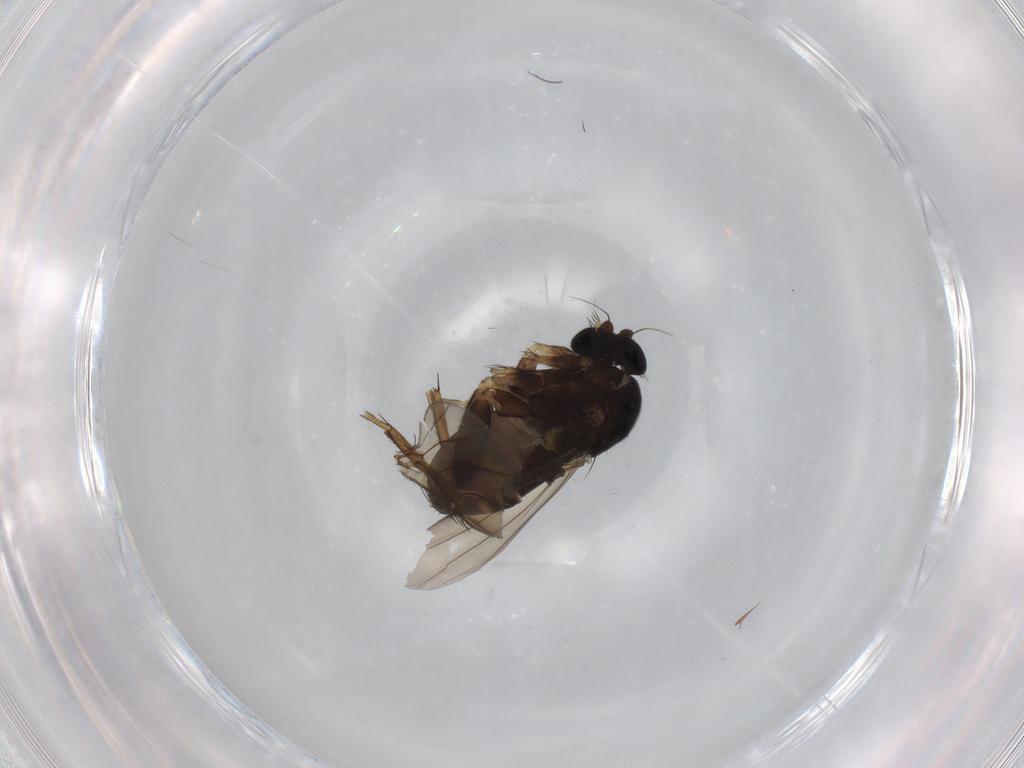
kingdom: Animalia
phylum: Arthropoda
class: Insecta
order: Diptera
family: Phoridae
